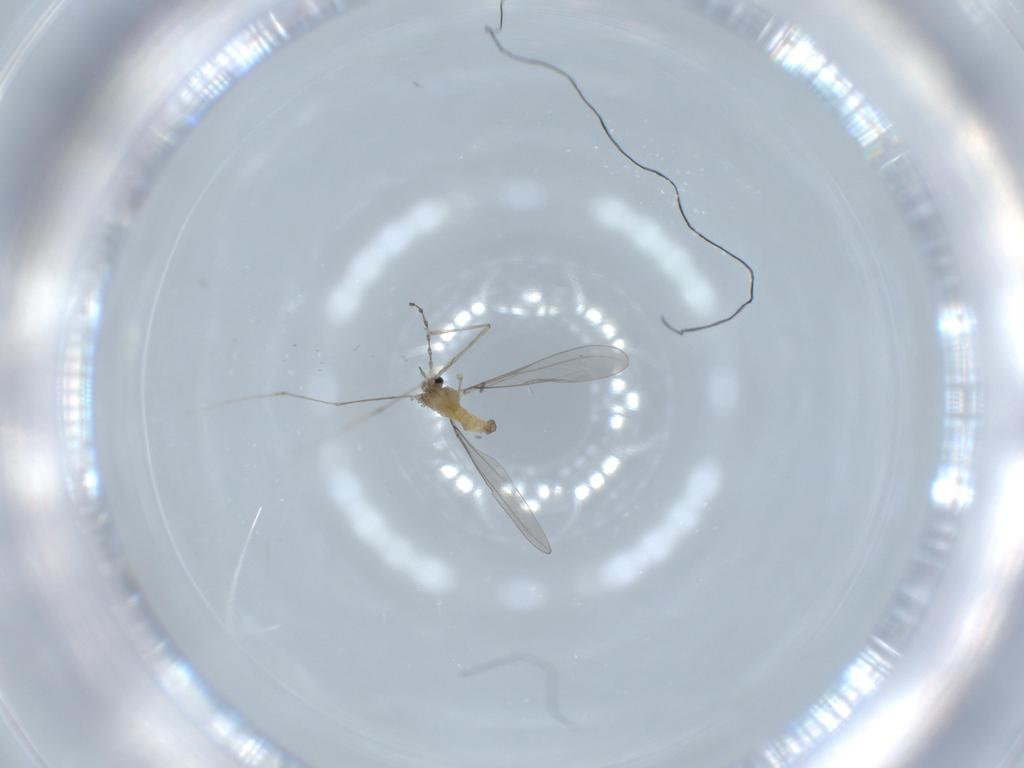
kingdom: Animalia
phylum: Arthropoda
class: Insecta
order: Diptera
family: Cecidomyiidae
